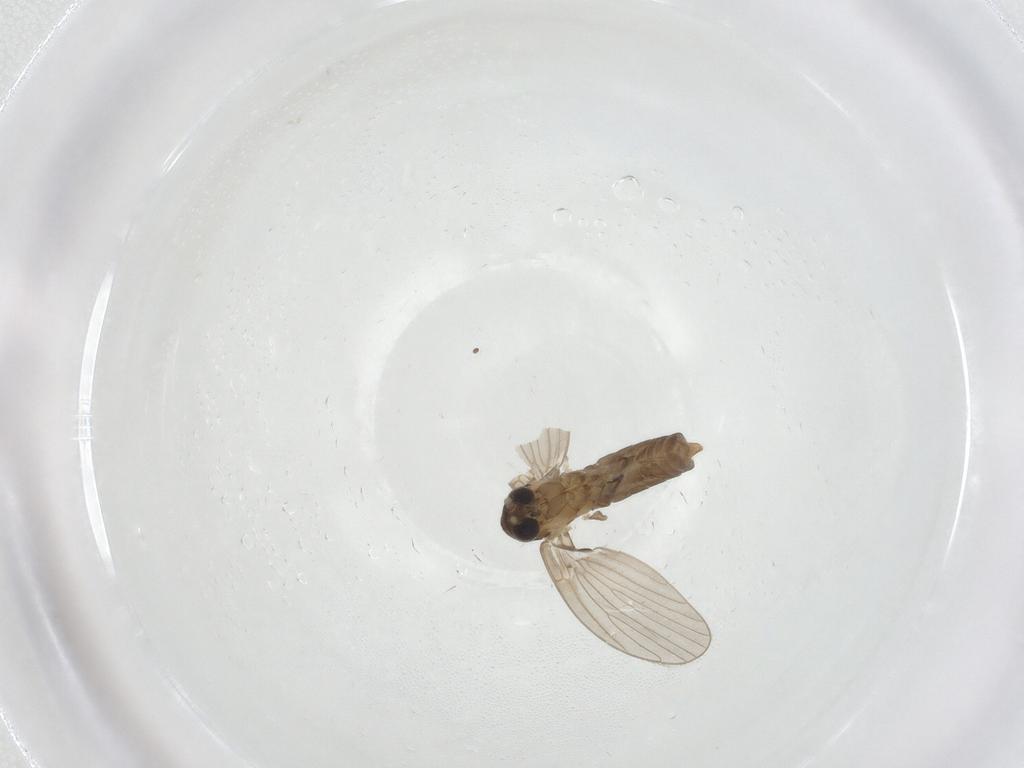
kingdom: Animalia
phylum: Arthropoda
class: Insecta
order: Diptera
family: Psychodidae
